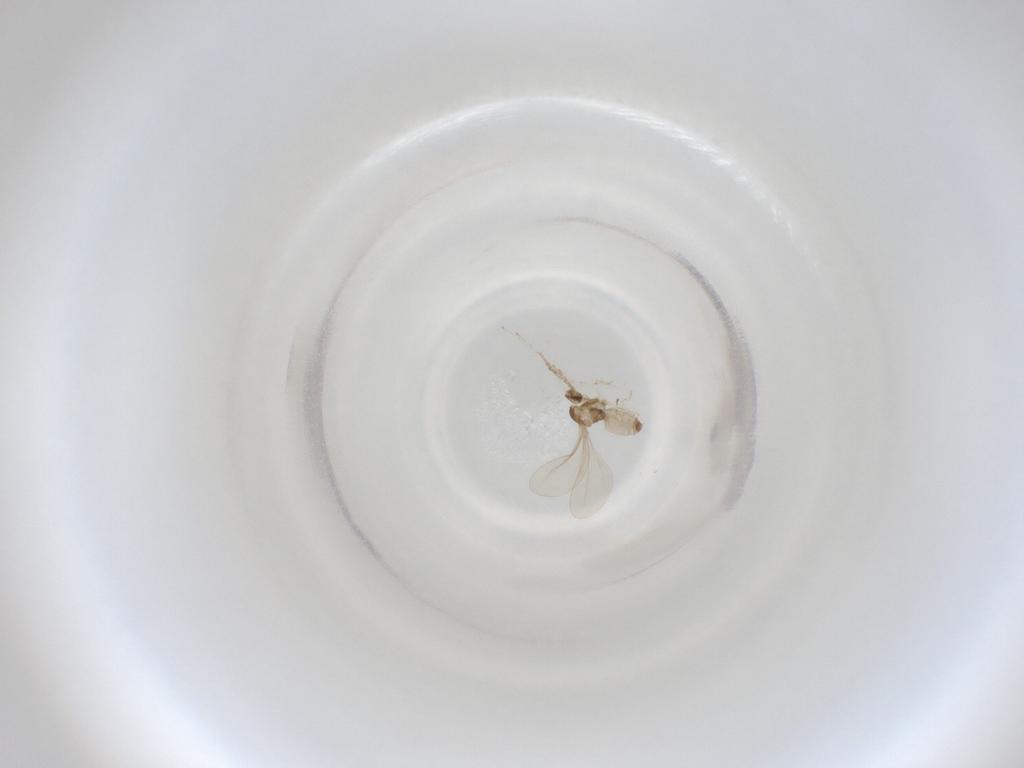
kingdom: Animalia
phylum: Arthropoda
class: Insecta
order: Diptera
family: Cecidomyiidae
